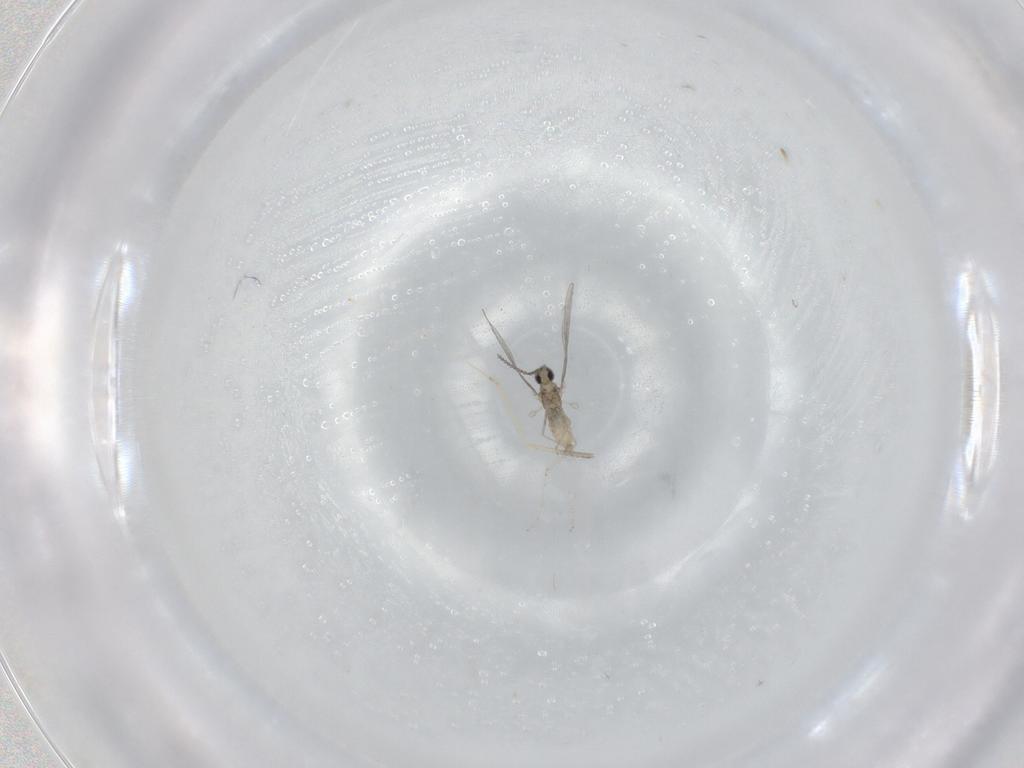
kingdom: Animalia
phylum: Arthropoda
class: Insecta
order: Diptera
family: Cecidomyiidae
